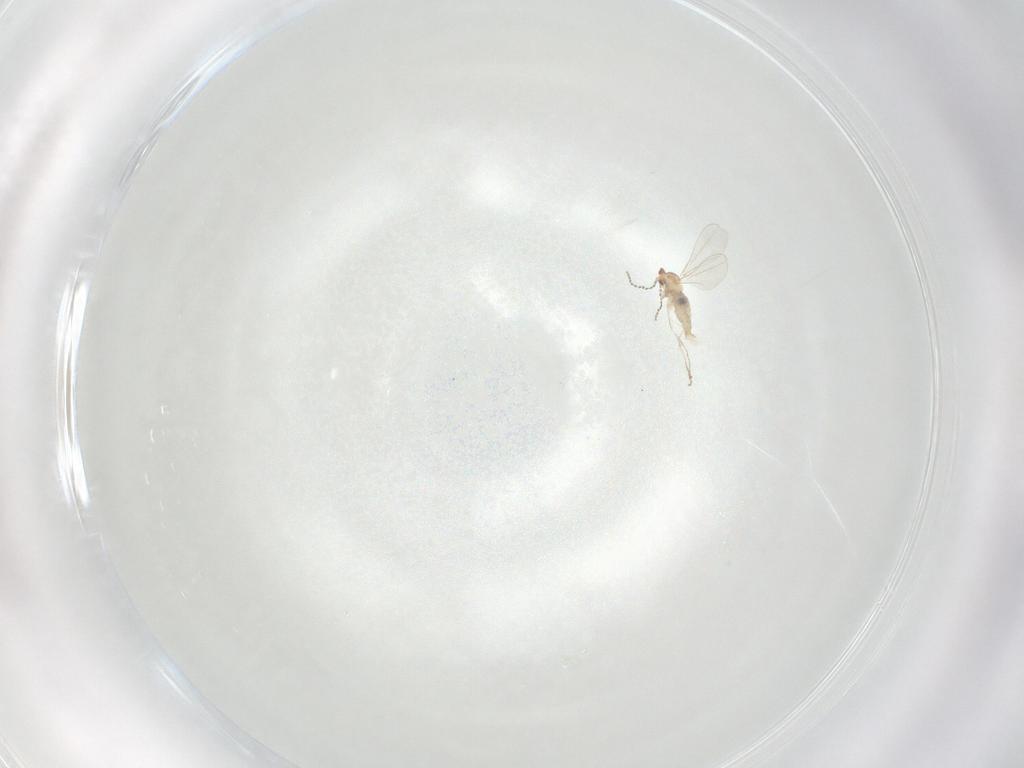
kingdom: Animalia
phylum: Arthropoda
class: Insecta
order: Diptera
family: Cecidomyiidae
